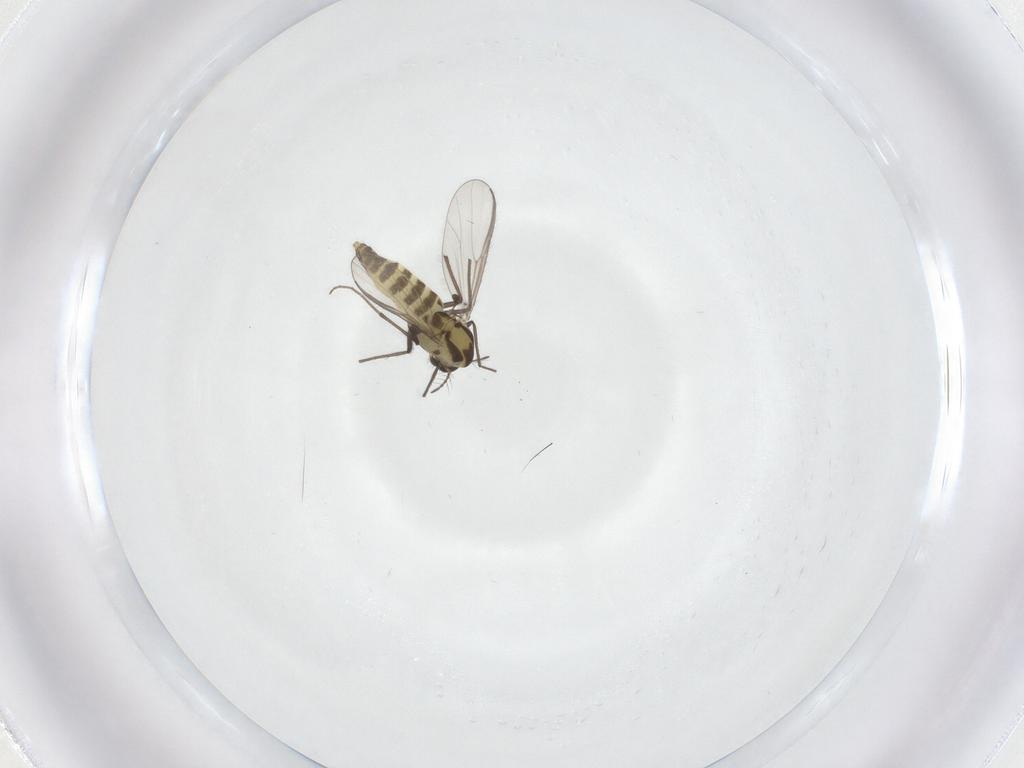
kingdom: Animalia
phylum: Arthropoda
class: Insecta
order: Diptera
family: Chironomidae
